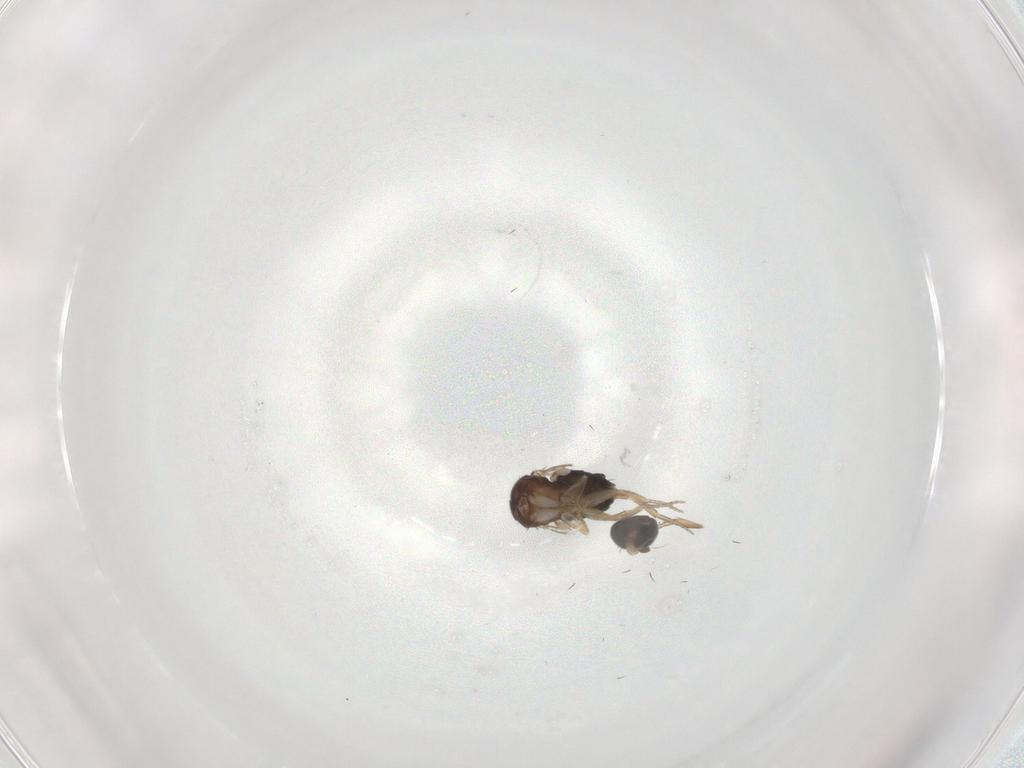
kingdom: Animalia
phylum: Arthropoda
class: Insecta
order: Diptera
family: Phoridae
